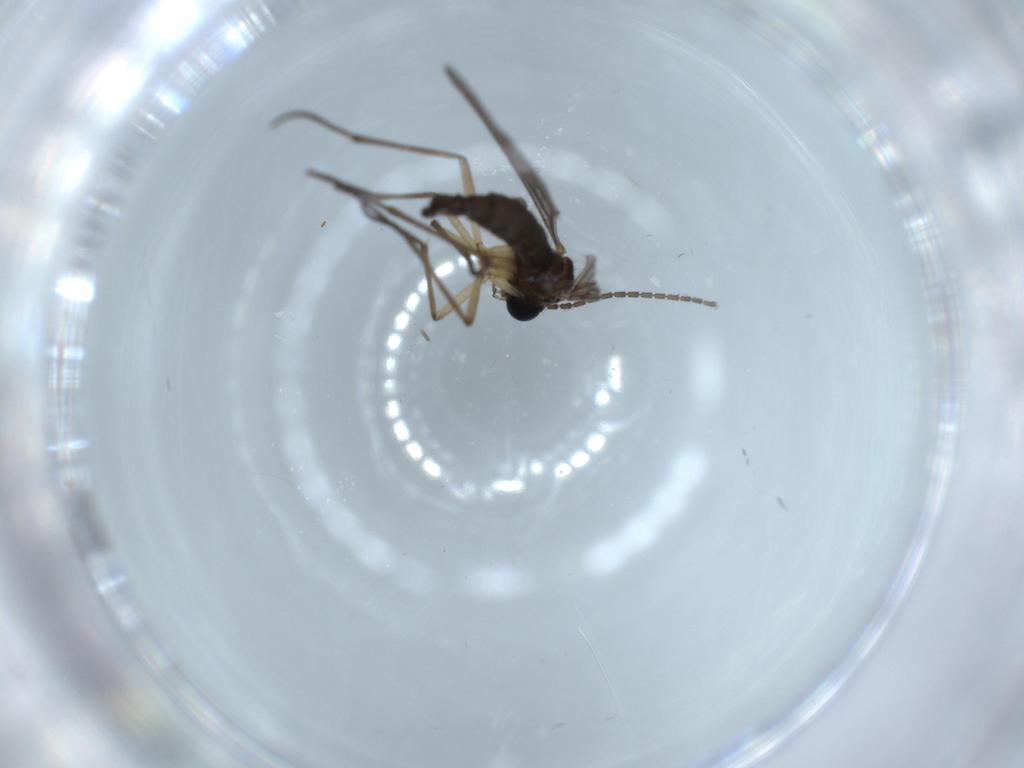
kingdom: Animalia
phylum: Arthropoda
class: Insecta
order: Diptera
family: Sciaridae
